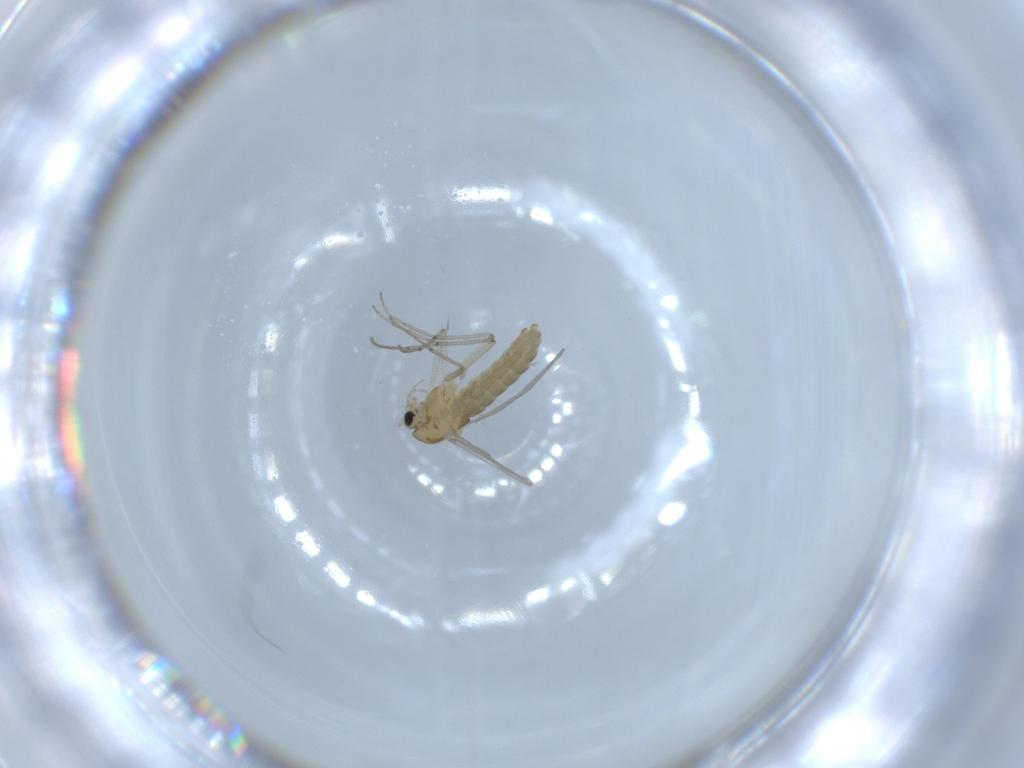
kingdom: Animalia
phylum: Arthropoda
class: Insecta
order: Diptera
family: Chironomidae
